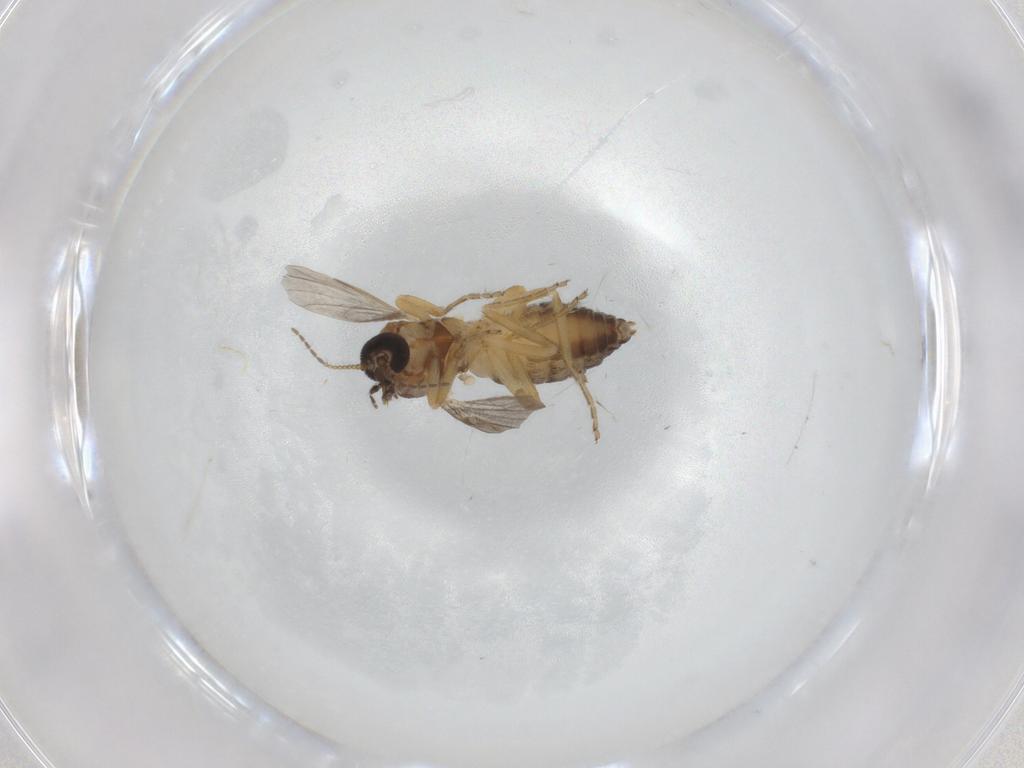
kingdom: Animalia
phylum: Arthropoda
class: Insecta
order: Diptera
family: Ceratopogonidae
